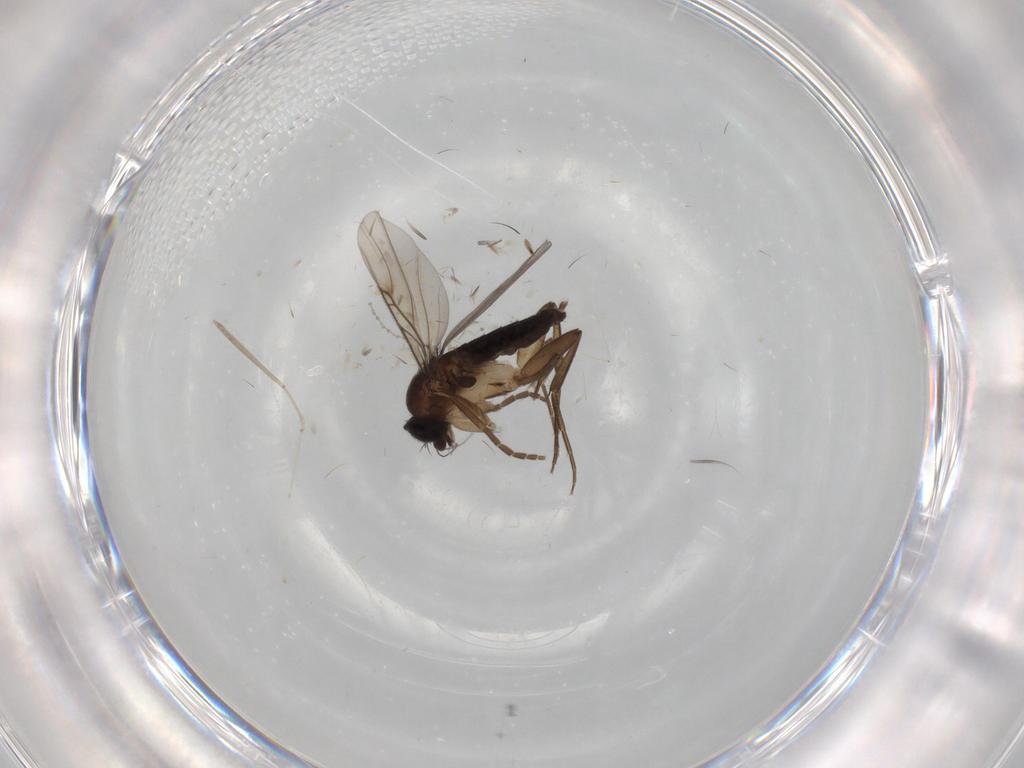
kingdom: Animalia
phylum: Arthropoda
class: Insecta
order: Diptera
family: Phoridae
